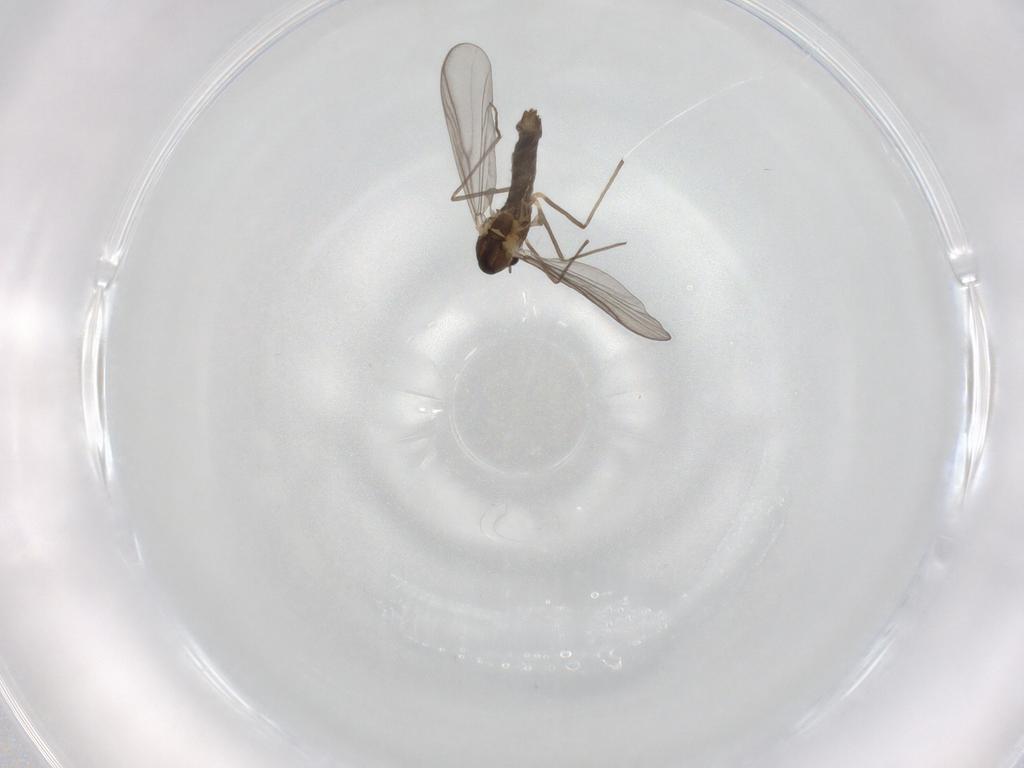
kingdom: Animalia
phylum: Arthropoda
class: Insecta
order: Diptera
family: Chironomidae
